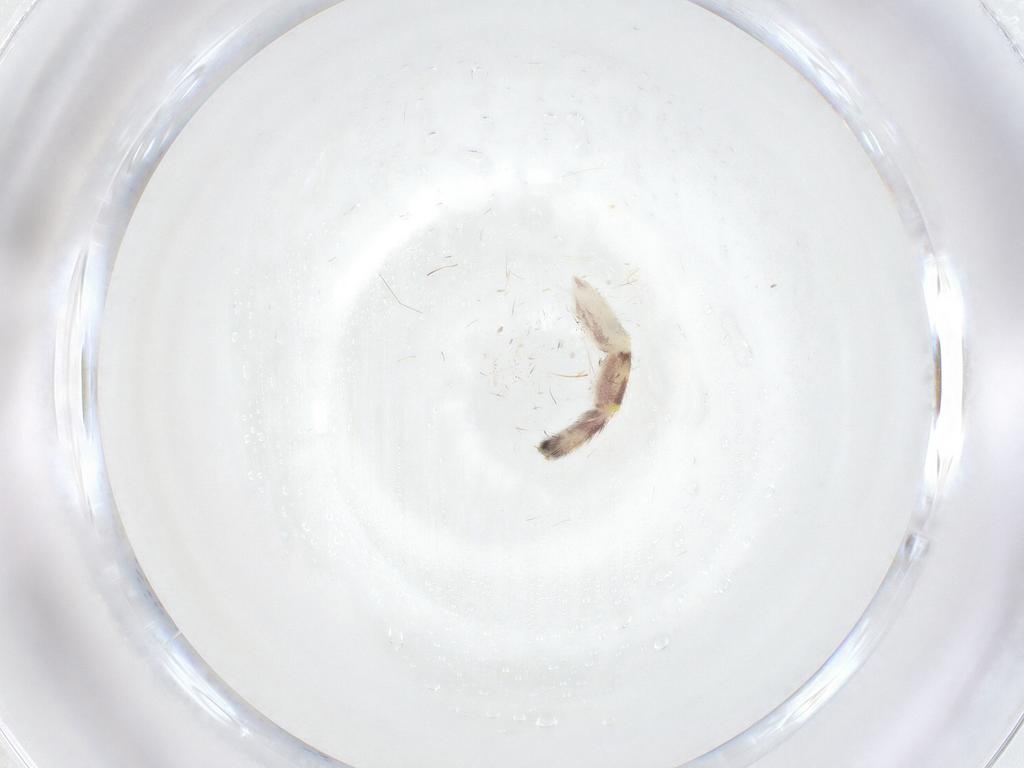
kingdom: Animalia
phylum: Arthropoda
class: Insecta
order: Archaeognatha
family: Machilidae
